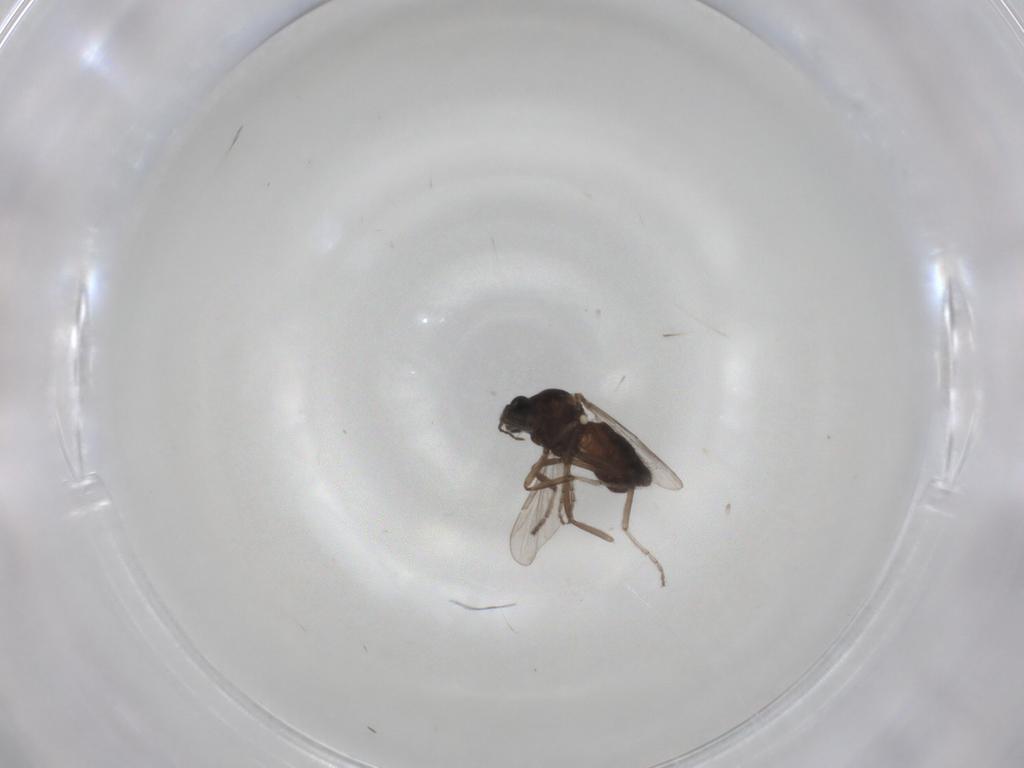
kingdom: Animalia
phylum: Arthropoda
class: Insecta
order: Diptera
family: Ceratopogonidae
